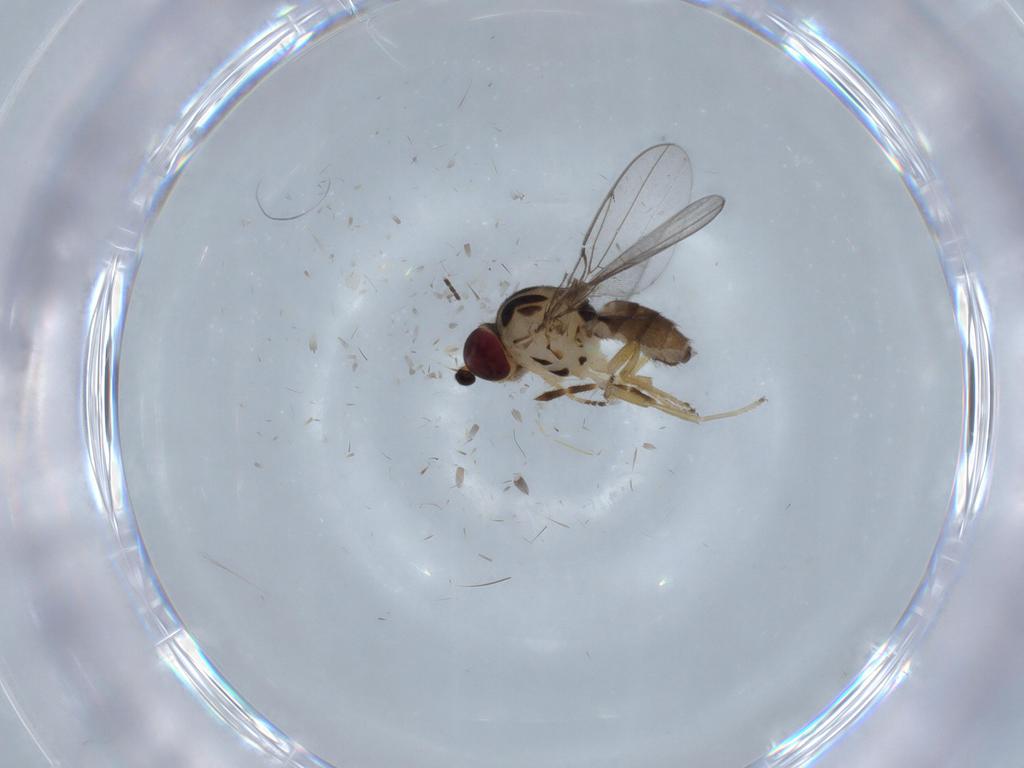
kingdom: Animalia
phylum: Arthropoda
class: Insecta
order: Diptera
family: Chloropidae
